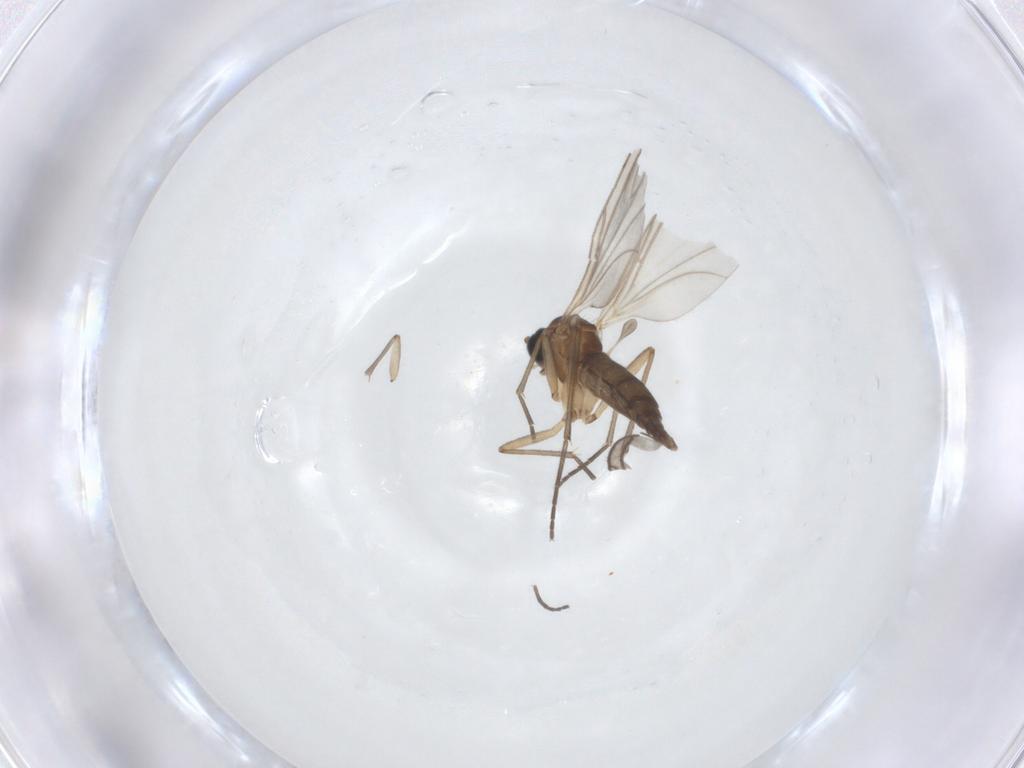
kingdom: Animalia
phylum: Arthropoda
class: Insecta
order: Diptera
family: Sciaridae
